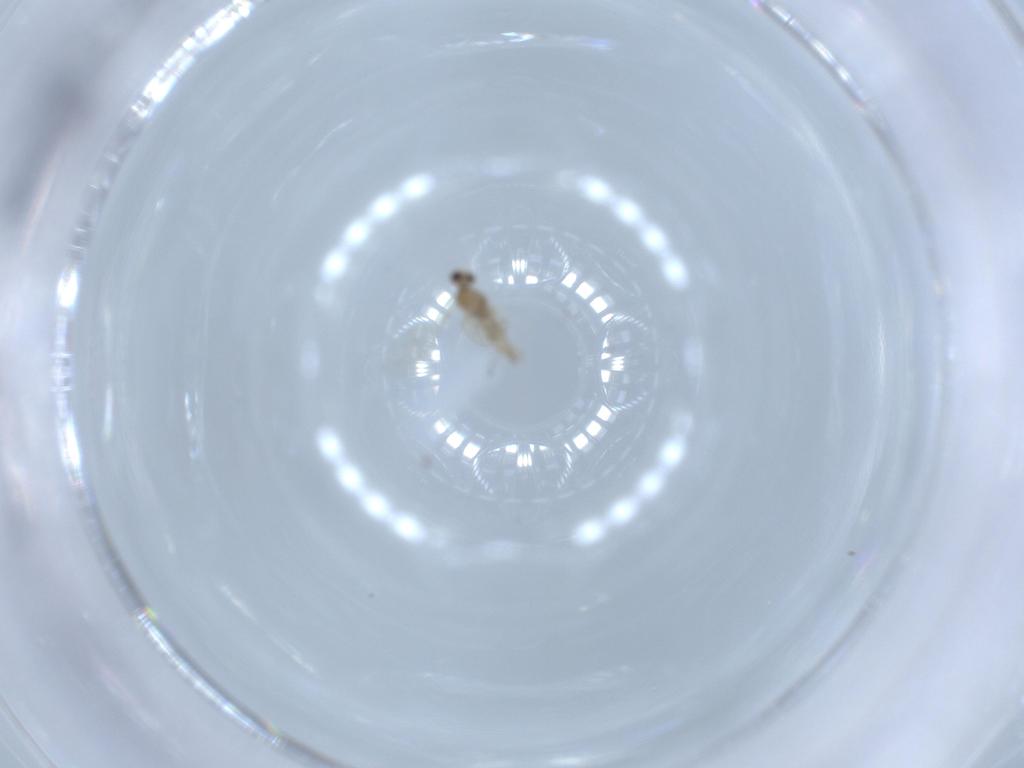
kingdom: Animalia
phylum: Arthropoda
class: Insecta
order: Diptera
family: Cecidomyiidae
